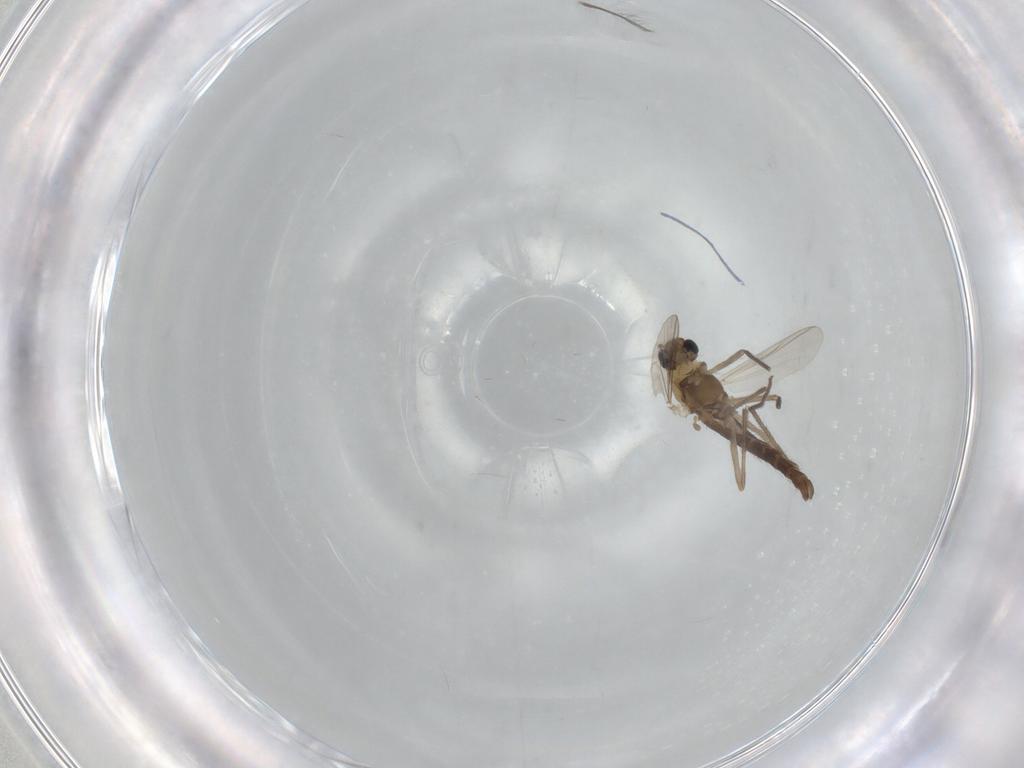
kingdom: Animalia
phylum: Arthropoda
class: Insecta
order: Diptera
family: Chironomidae
